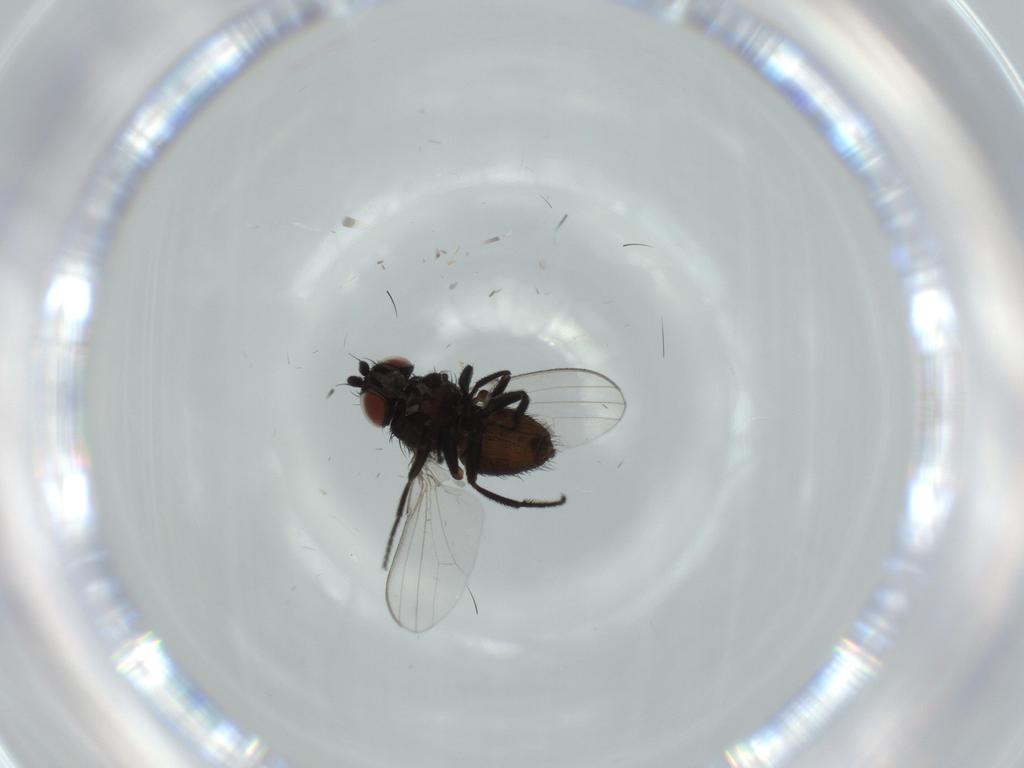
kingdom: Animalia
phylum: Arthropoda
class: Insecta
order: Diptera
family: Milichiidae
